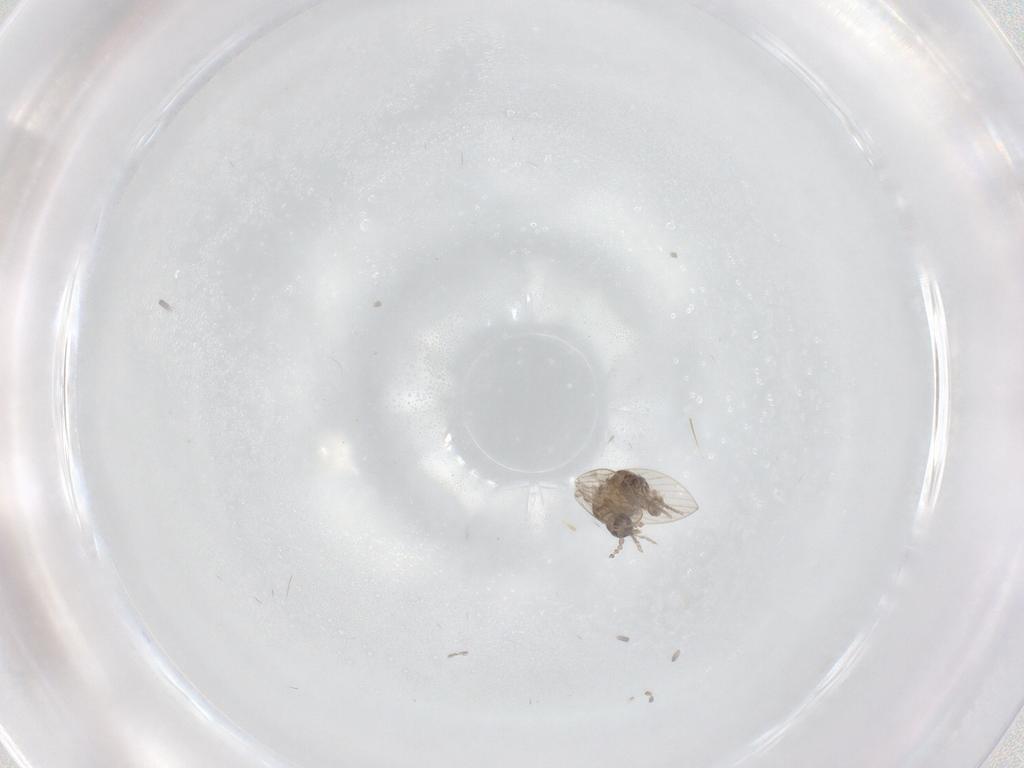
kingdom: Animalia
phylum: Arthropoda
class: Insecta
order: Diptera
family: Psychodidae
